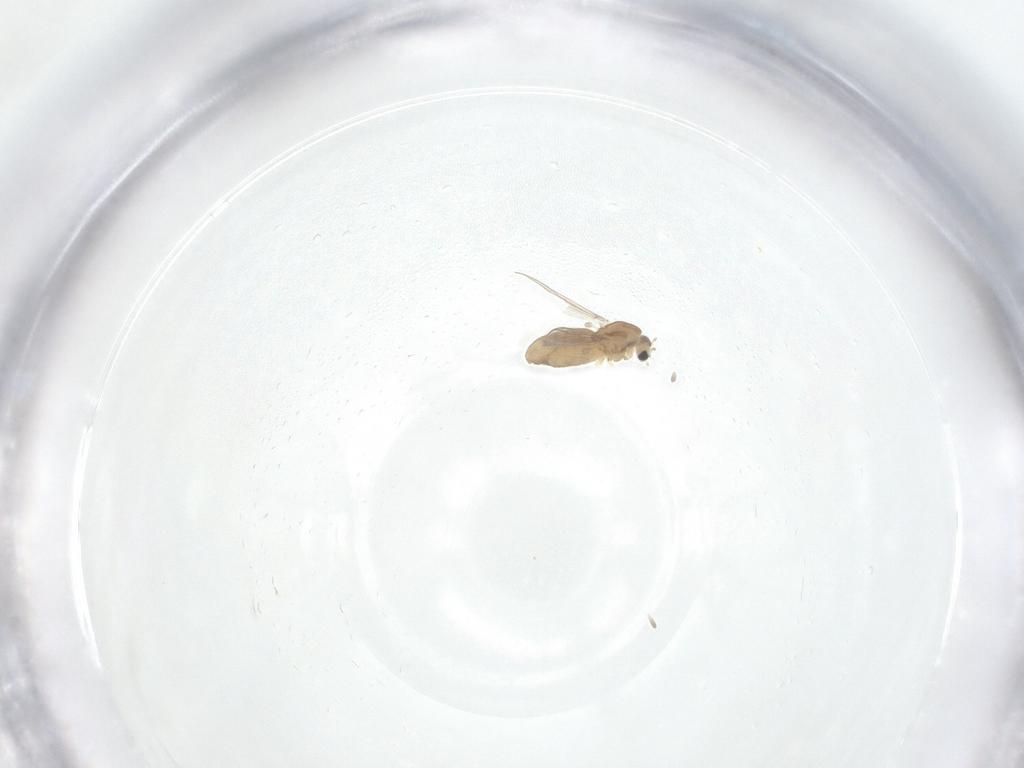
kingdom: Animalia
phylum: Arthropoda
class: Insecta
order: Diptera
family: Chironomidae
